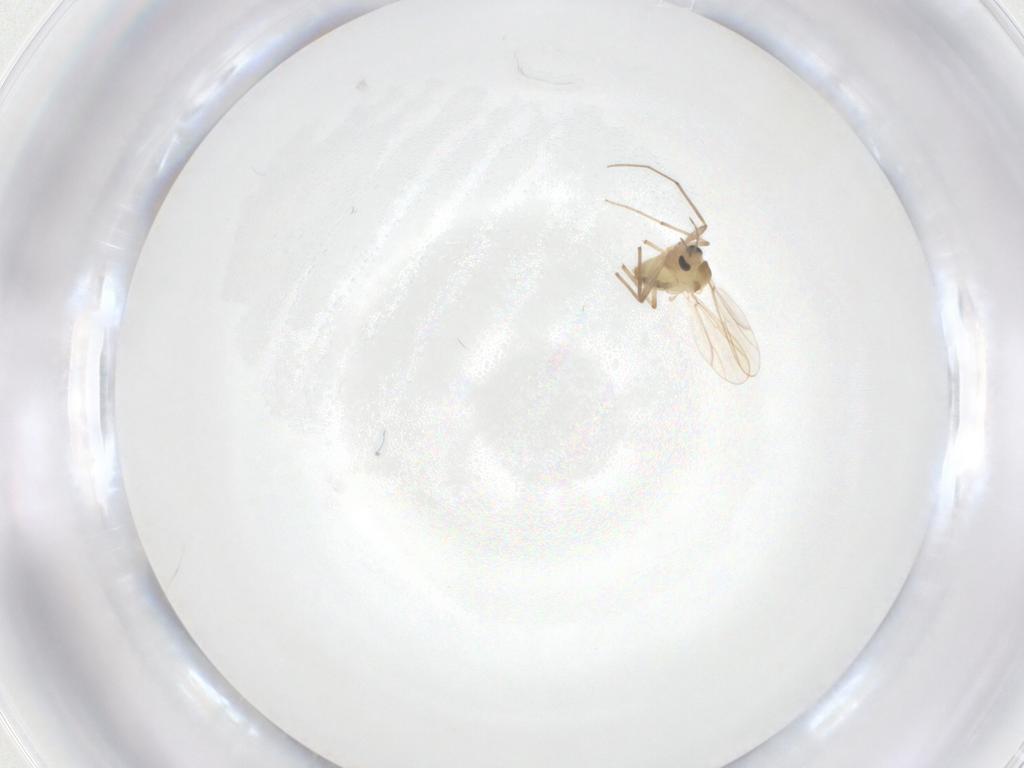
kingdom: Animalia
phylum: Arthropoda
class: Insecta
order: Diptera
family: Chironomidae
